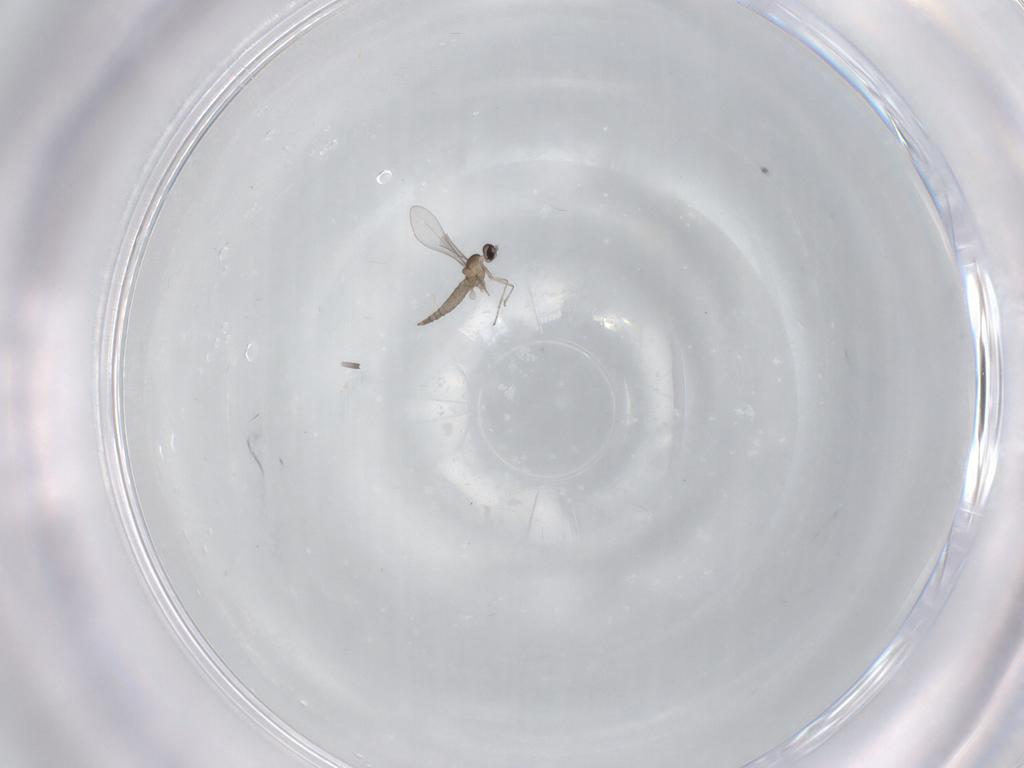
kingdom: Animalia
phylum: Arthropoda
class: Insecta
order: Diptera
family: Cecidomyiidae
